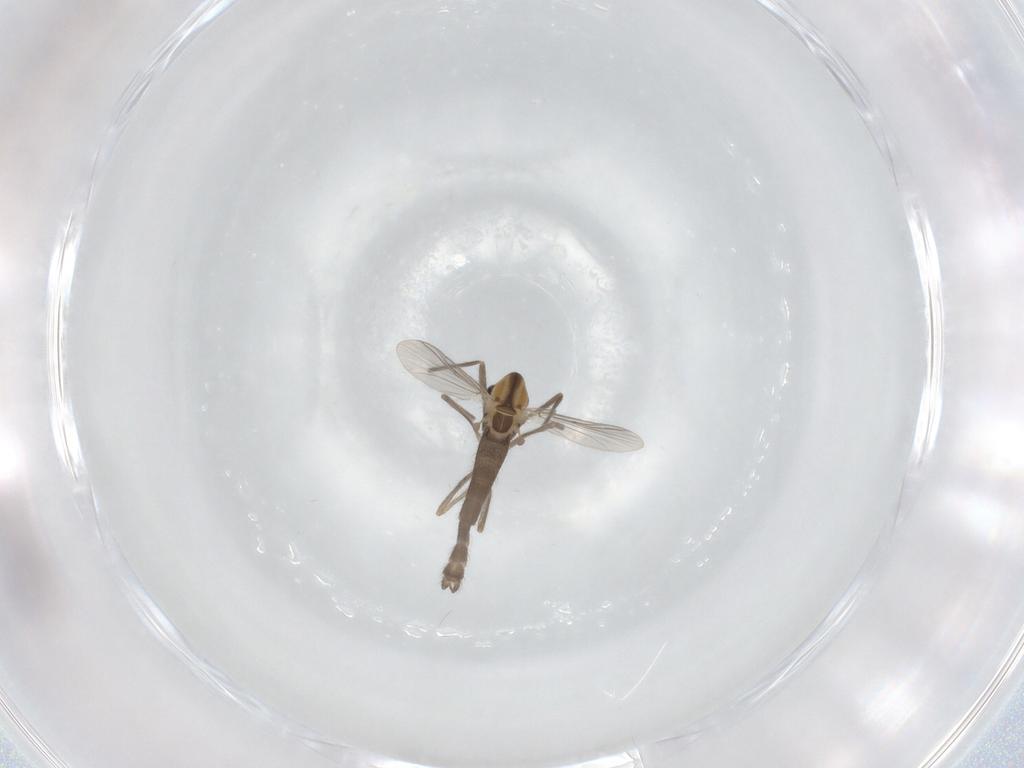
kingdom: Animalia
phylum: Arthropoda
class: Insecta
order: Diptera
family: Chironomidae
